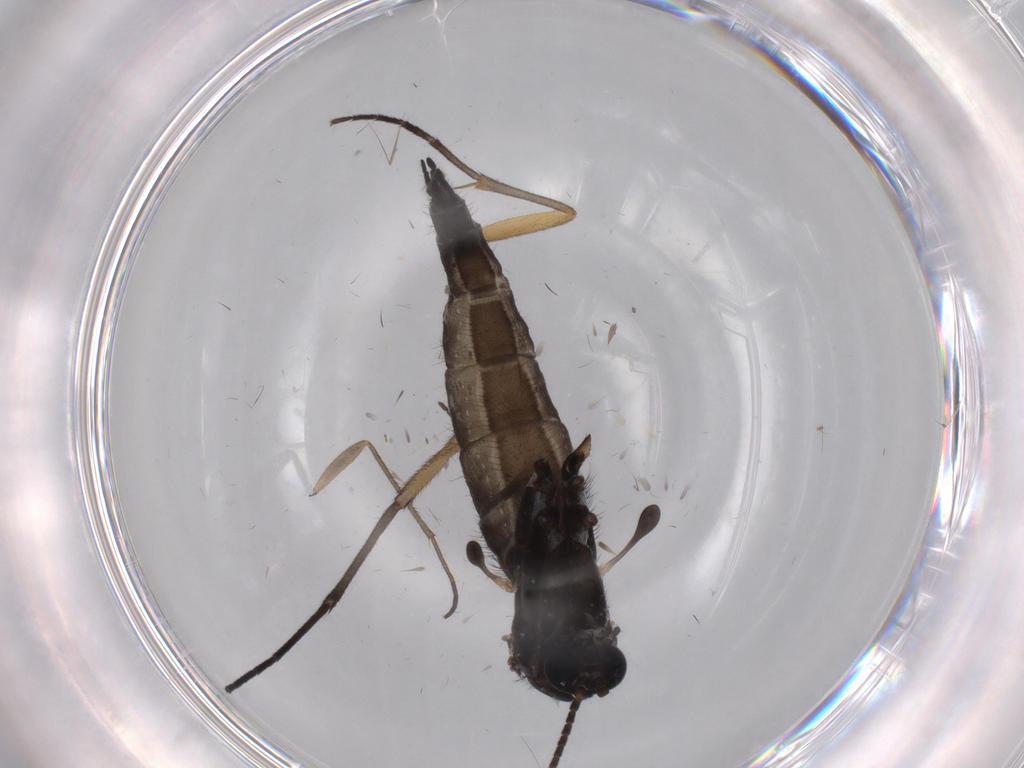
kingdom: Animalia
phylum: Arthropoda
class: Insecta
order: Diptera
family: Sciaridae
